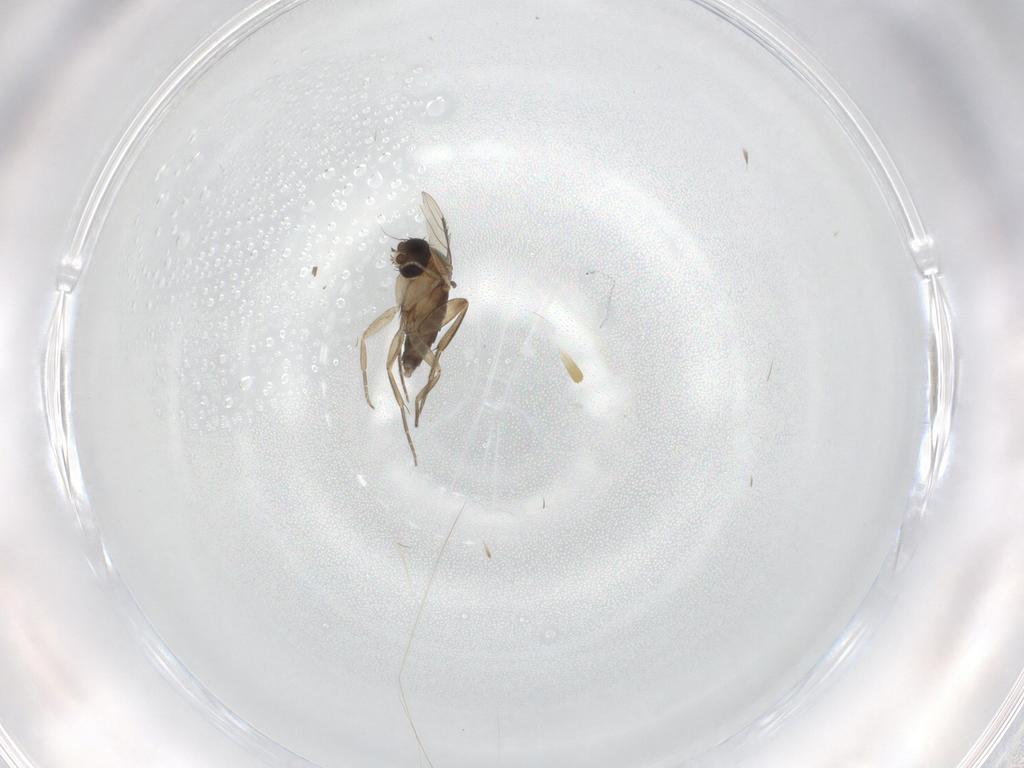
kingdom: Animalia
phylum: Arthropoda
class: Insecta
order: Diptera
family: Phoridae
